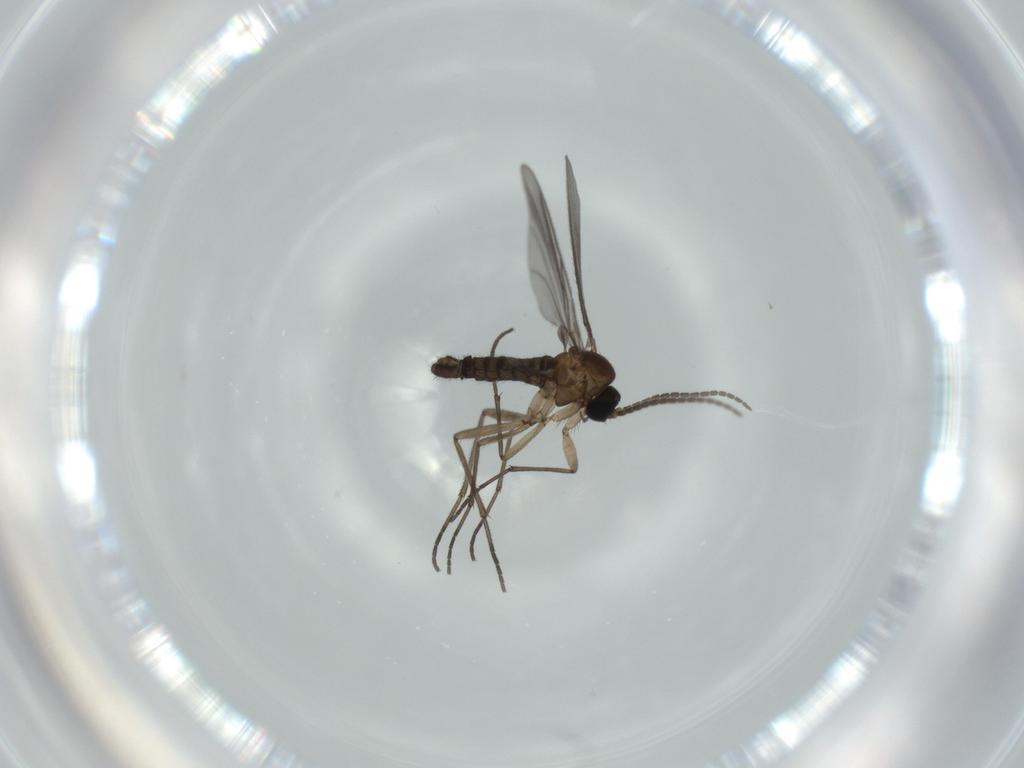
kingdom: Animalia
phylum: Arthropoda
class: Insecta
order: Diptera
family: Sciaridae
